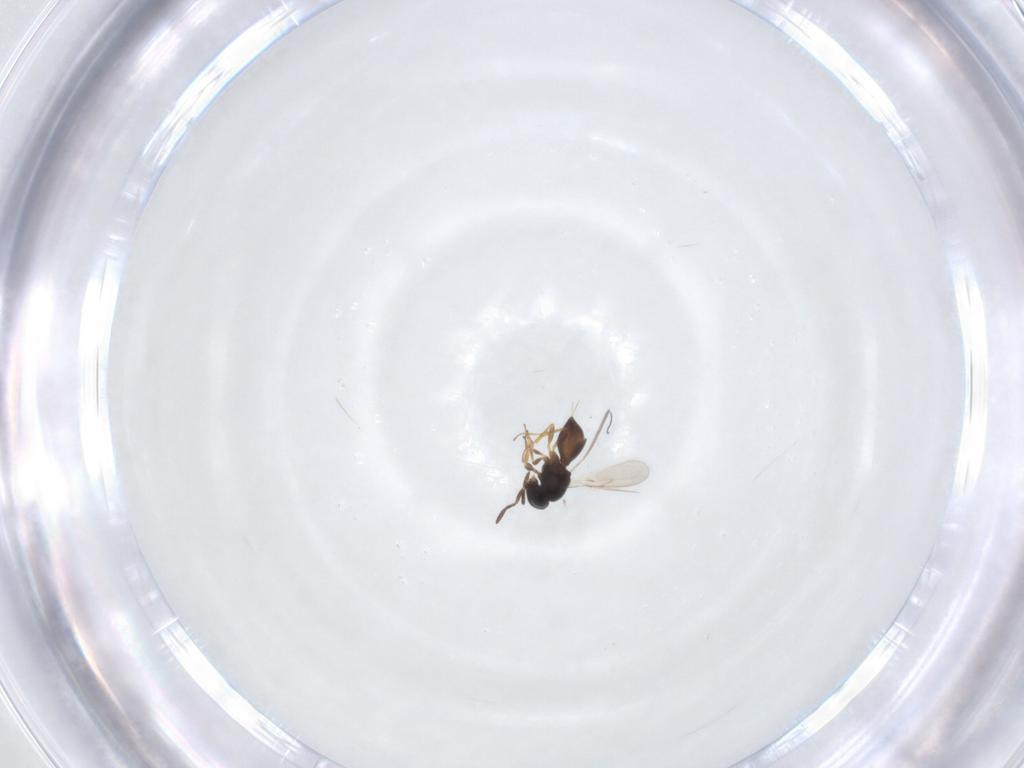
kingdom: Animalia
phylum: Arthropoda
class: Insecta
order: Hymenoptera
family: Scelionidae
